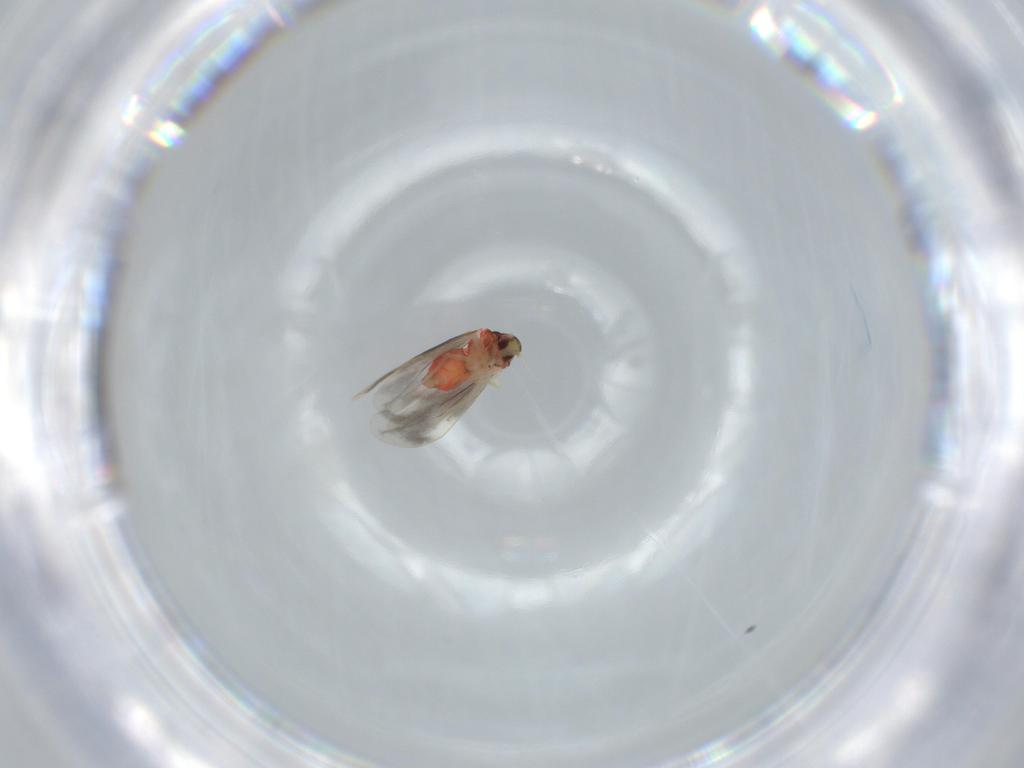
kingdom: Animalia
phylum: Arthropoda
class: Insecta
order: Hemiptera
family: Aleyrodidae
